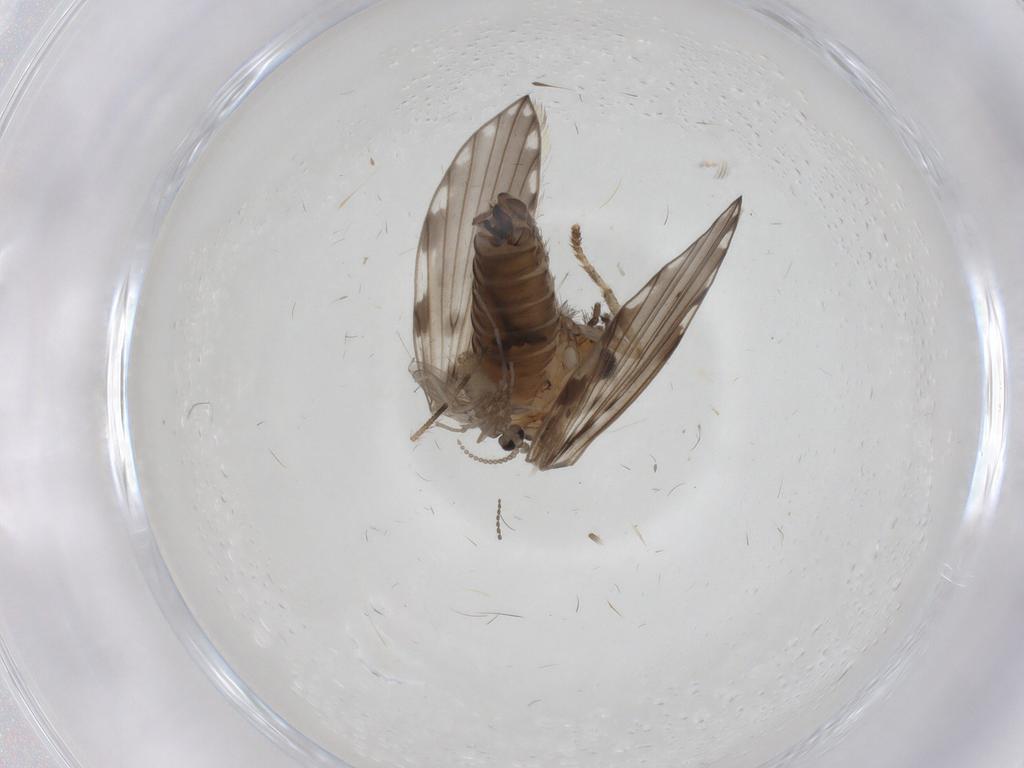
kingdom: Animalia
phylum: Arthropoda
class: Insecta
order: Diptera
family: Psychodidae
